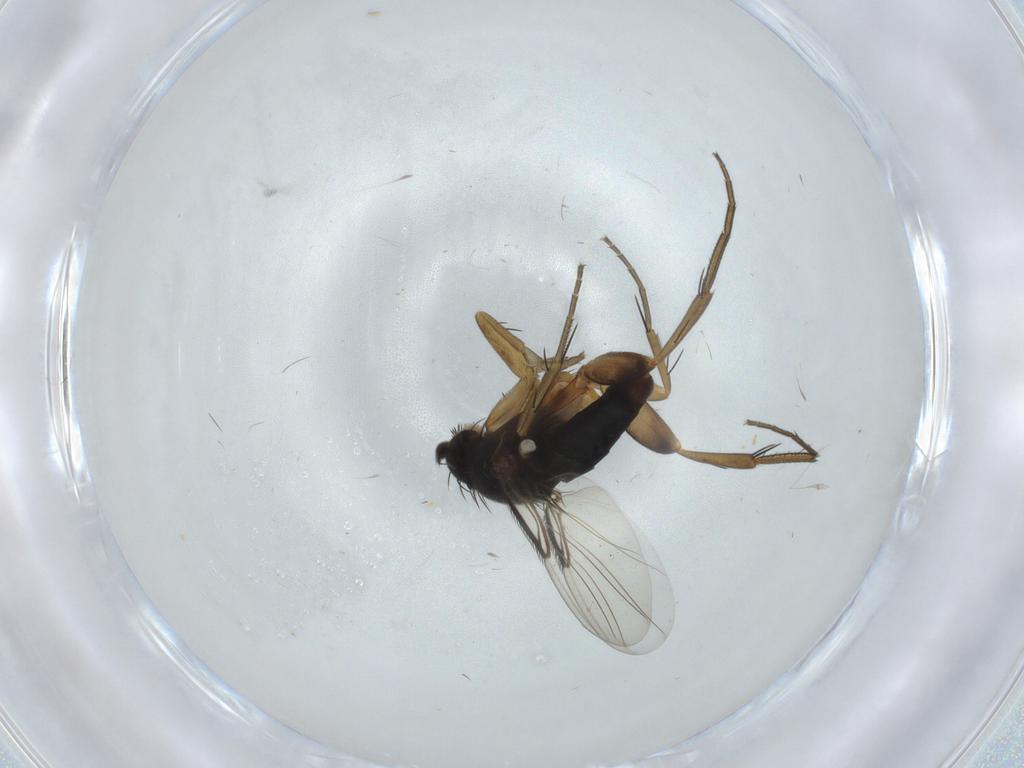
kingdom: Animalia
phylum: Arthropoda
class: Insecta
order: Diptera
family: Phoridae
